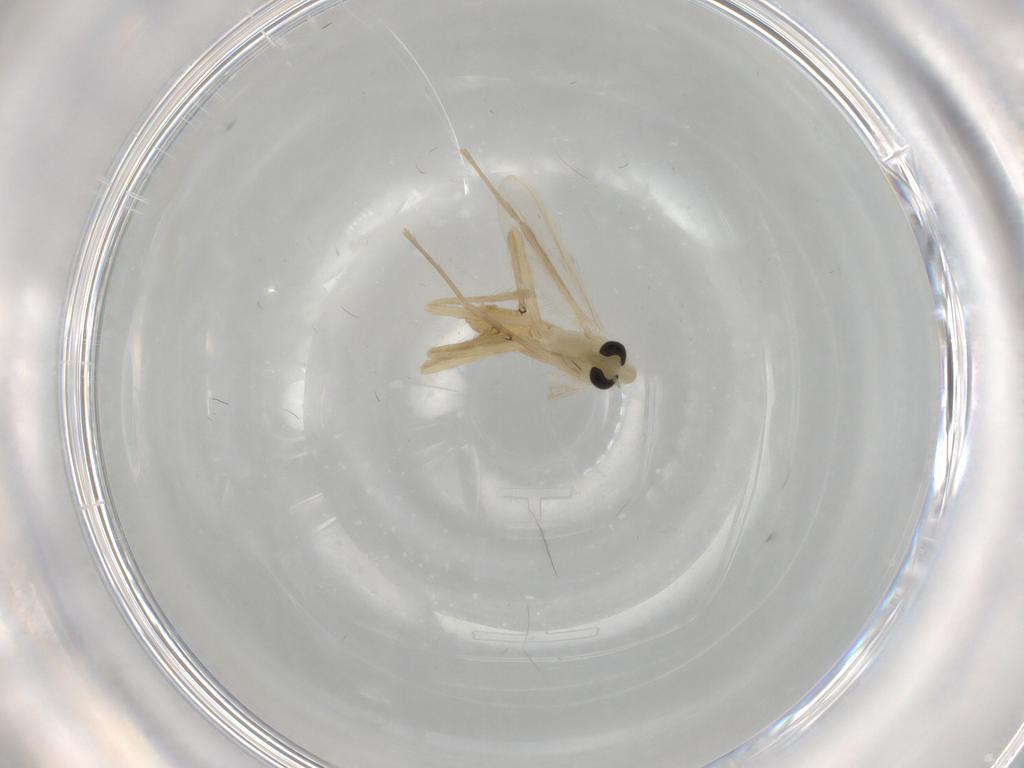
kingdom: Animalia
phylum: Arthropoda
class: Insecta
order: Diptera
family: Chironomidae
